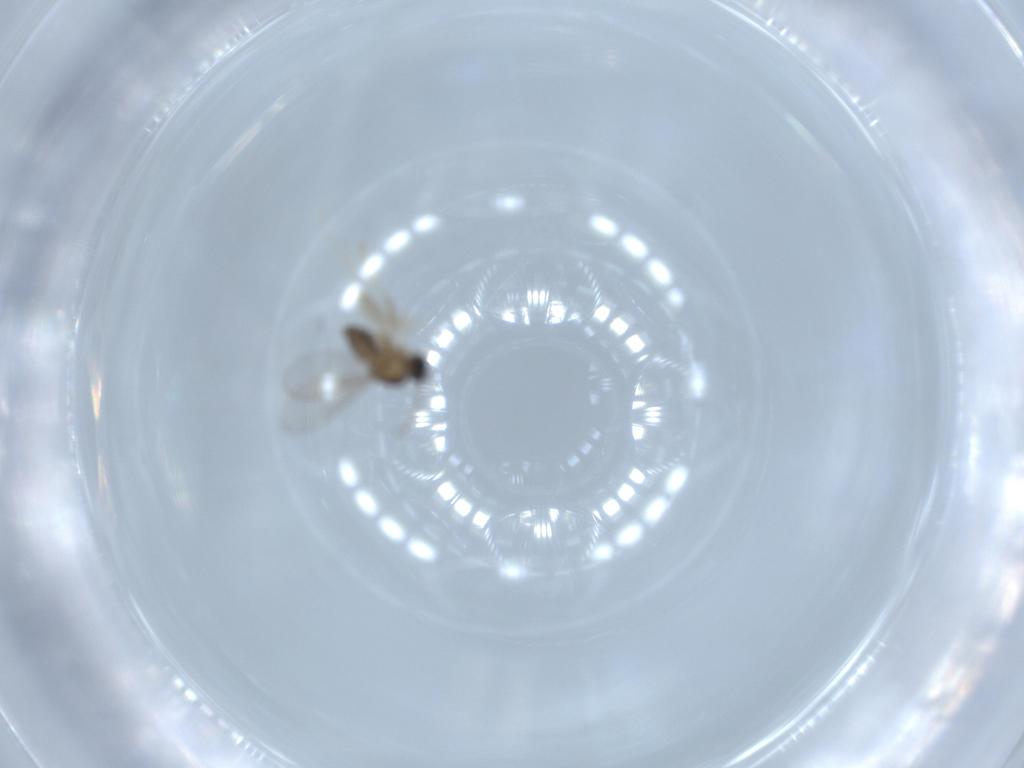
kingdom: Animalia
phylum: Arthropoda
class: Insecta
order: Diptera
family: Cecidomyiidae
